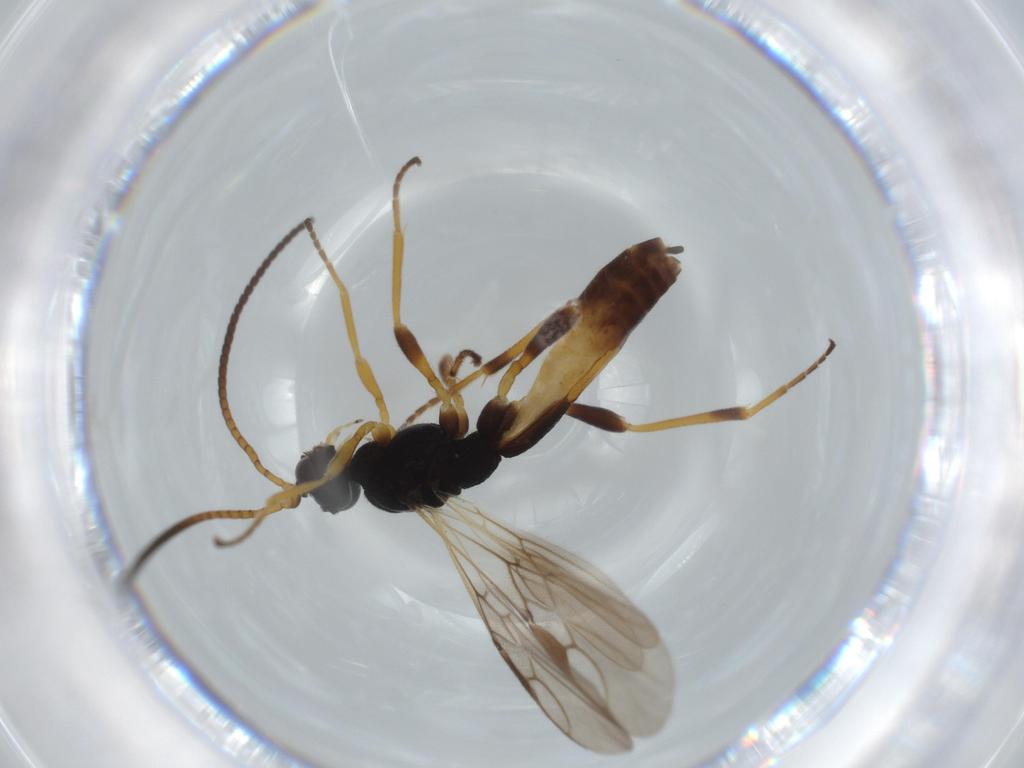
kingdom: Animalia
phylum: Arthropoda
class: Insecta
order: Hymenoptera
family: Braconidae
